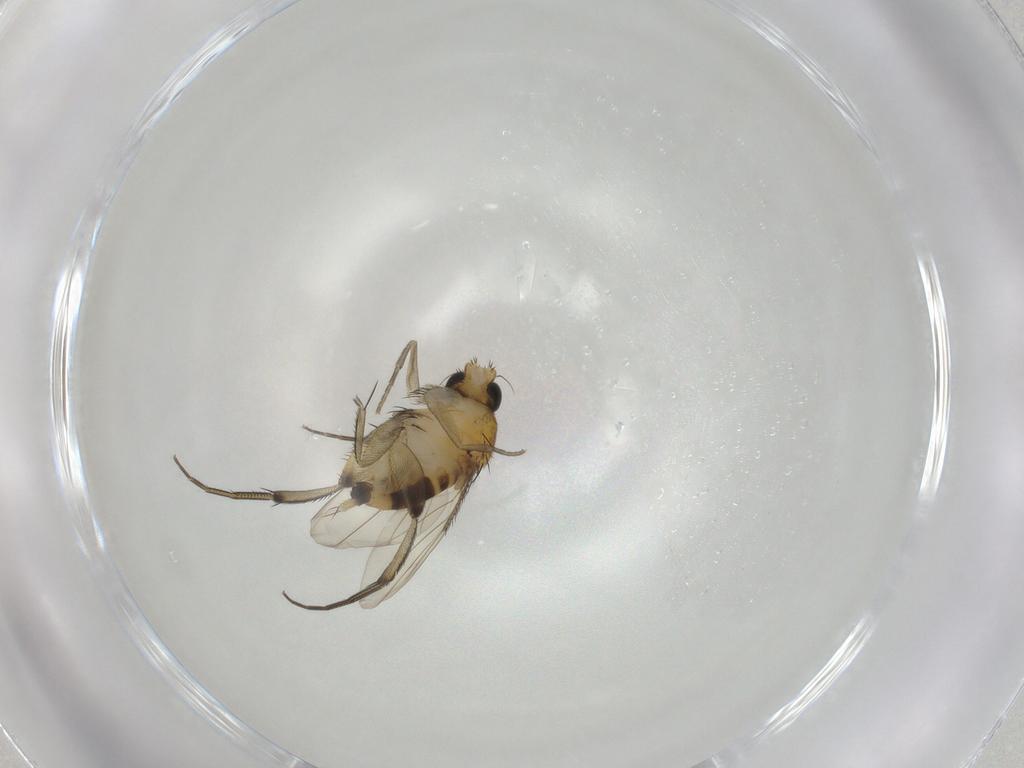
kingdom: Animalia
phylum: Arthropoda
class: Insecta
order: Diptera
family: Phoridae
